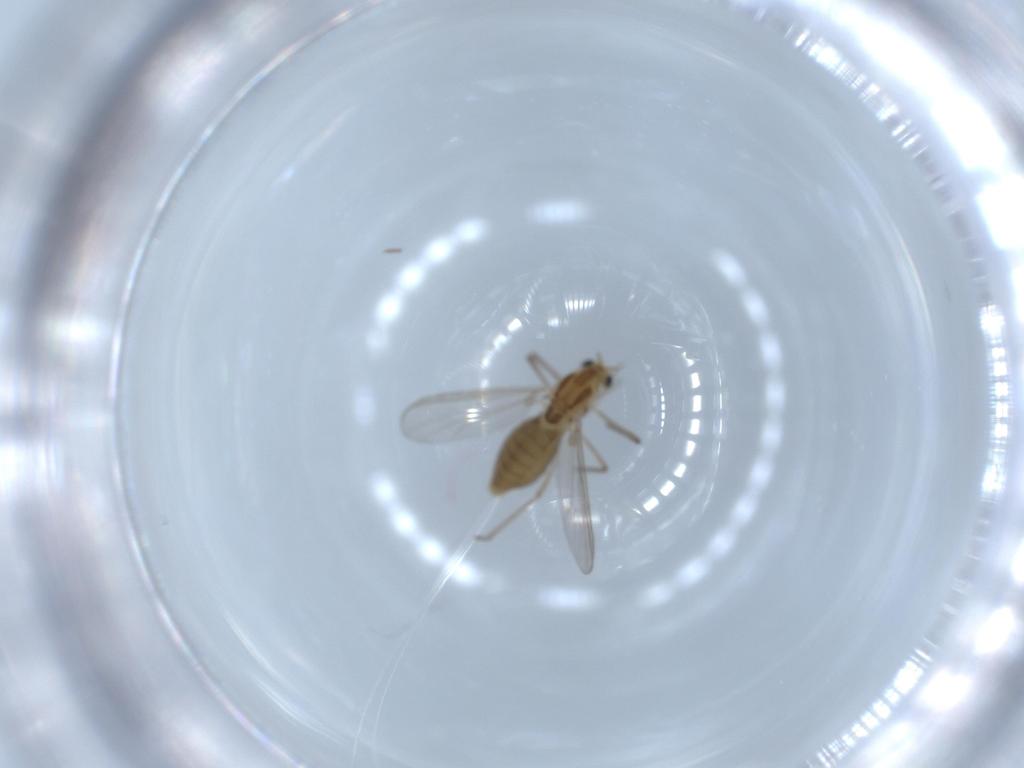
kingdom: Animalia
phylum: Arthropoda
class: Insecta
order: Diptera
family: Chironomidae
